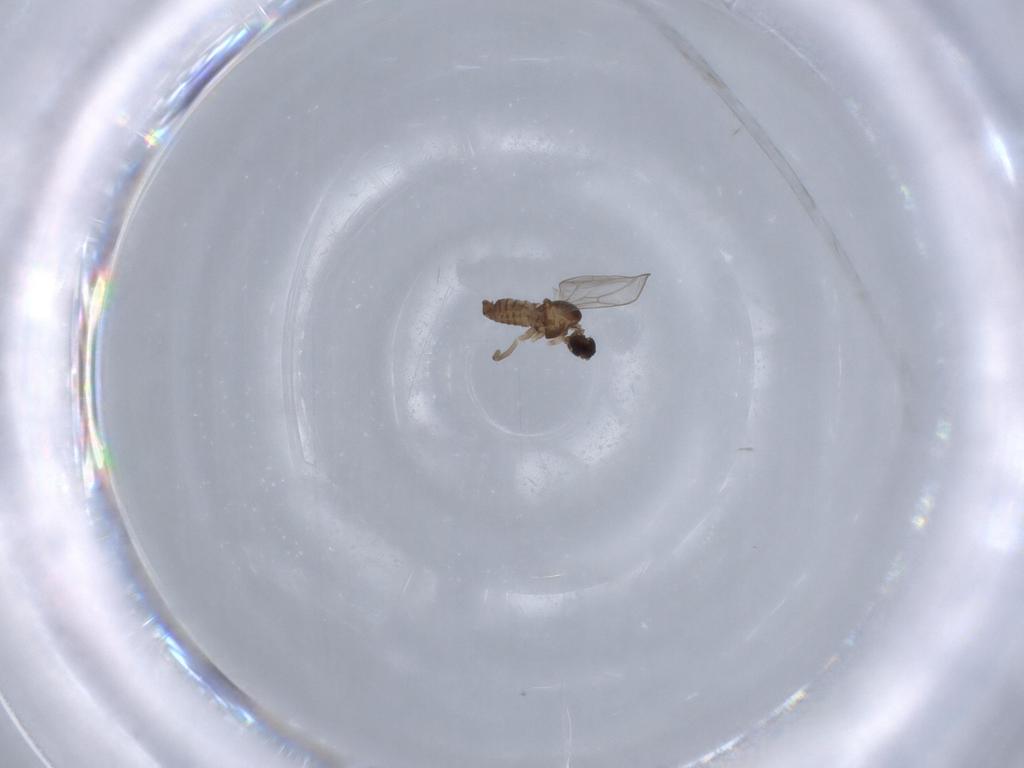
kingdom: Animalia
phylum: Arthropoda
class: Insecta
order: Diptera
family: Cecidomyiidae
